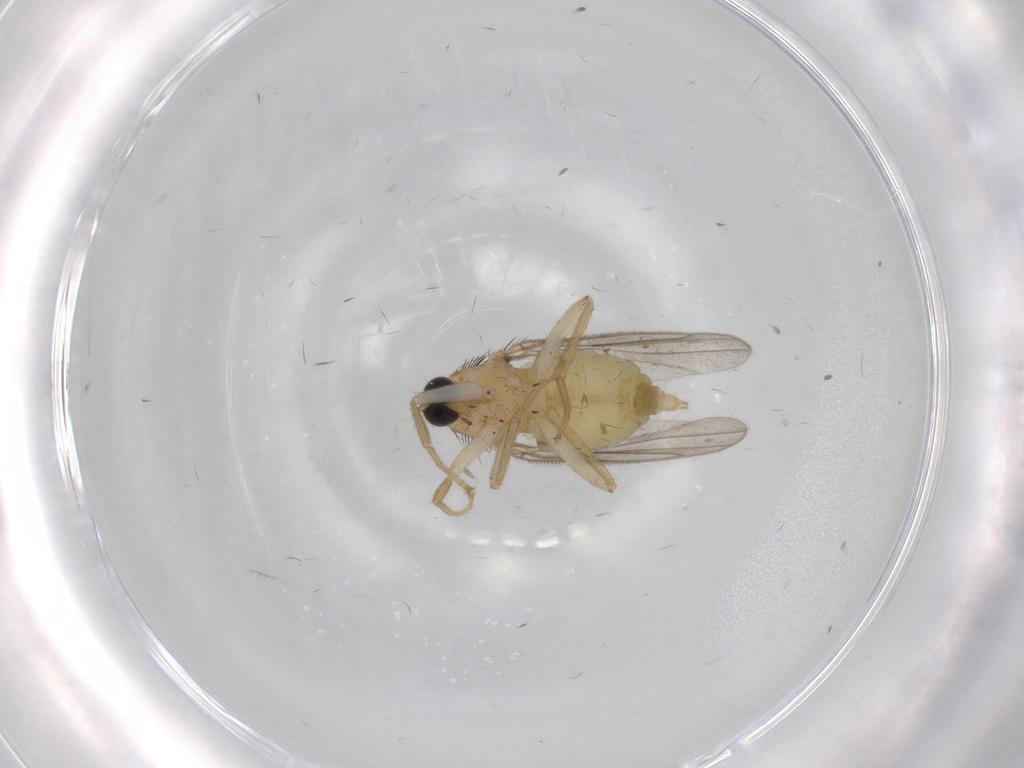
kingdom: Animalia
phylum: Arthropoda
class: Insecta
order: Diptera
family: Hybotidae
